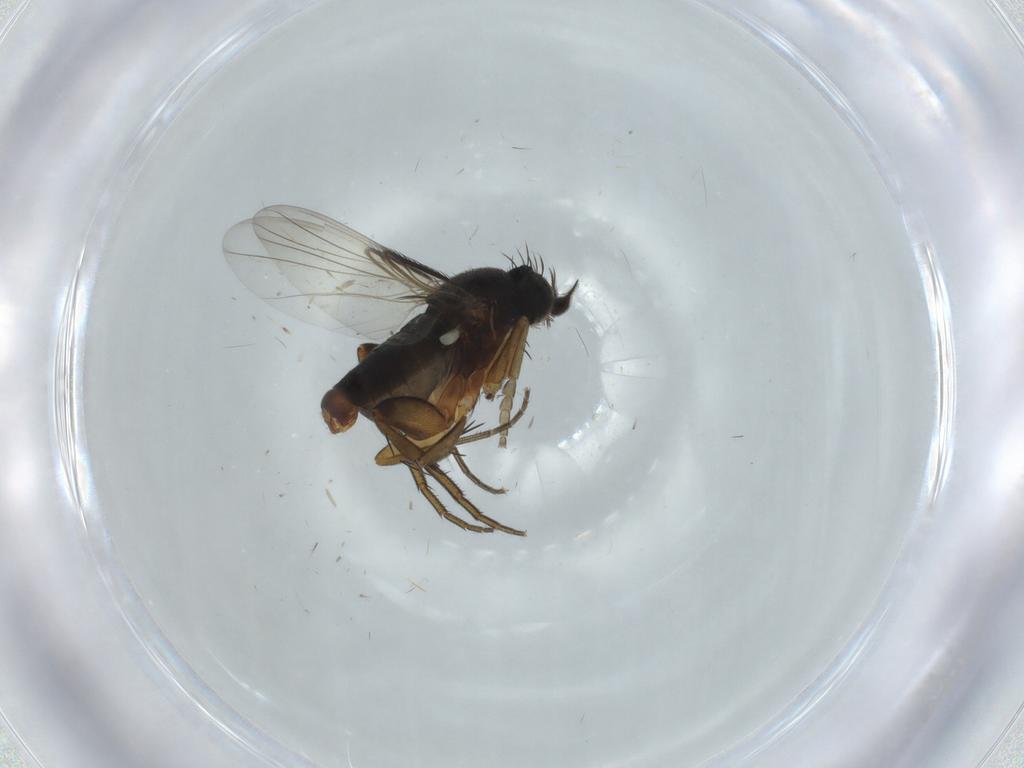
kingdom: Animalia
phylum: Arthropoda
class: Insecta
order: Diptera
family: Phoridae
